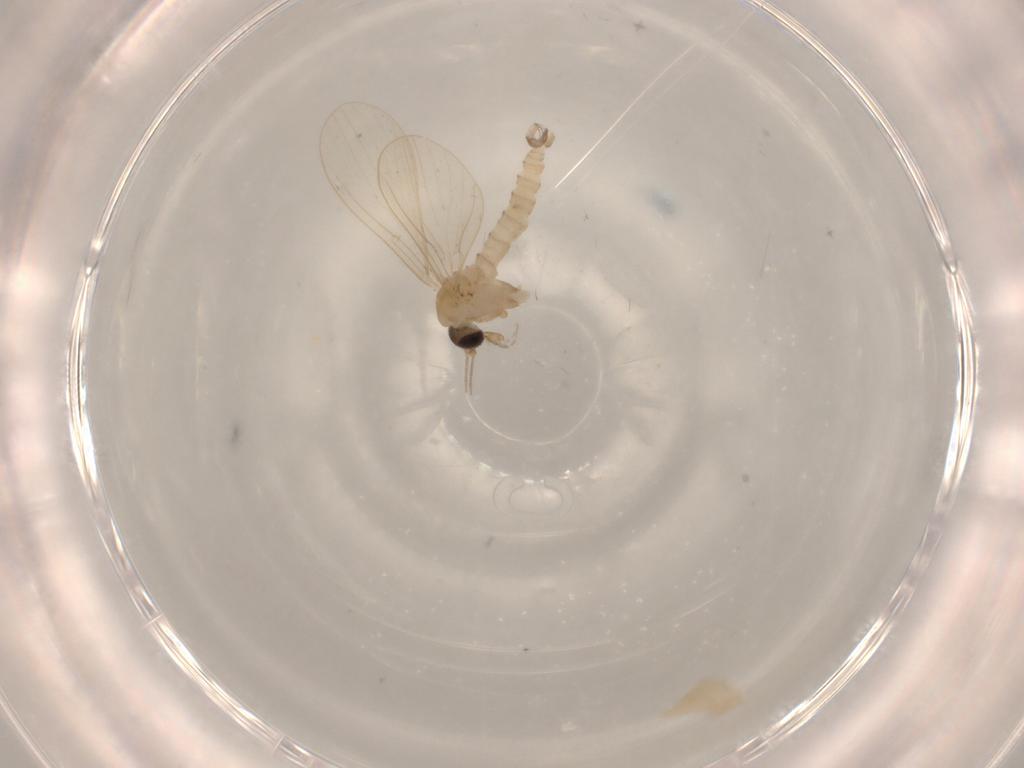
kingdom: Animalia
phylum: Arthropoda
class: Insecta
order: Diptera
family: Psychodidae
